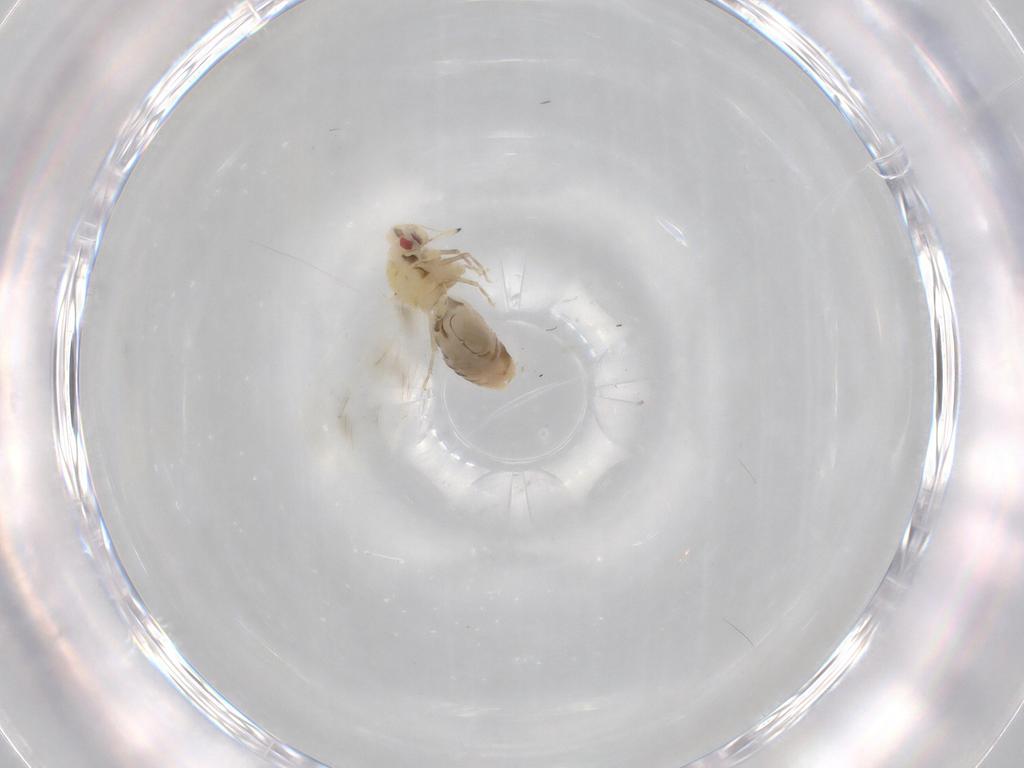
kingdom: Animalia
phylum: Arthropoda
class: Insecta
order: Hemiptera
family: Aleyrodidae
